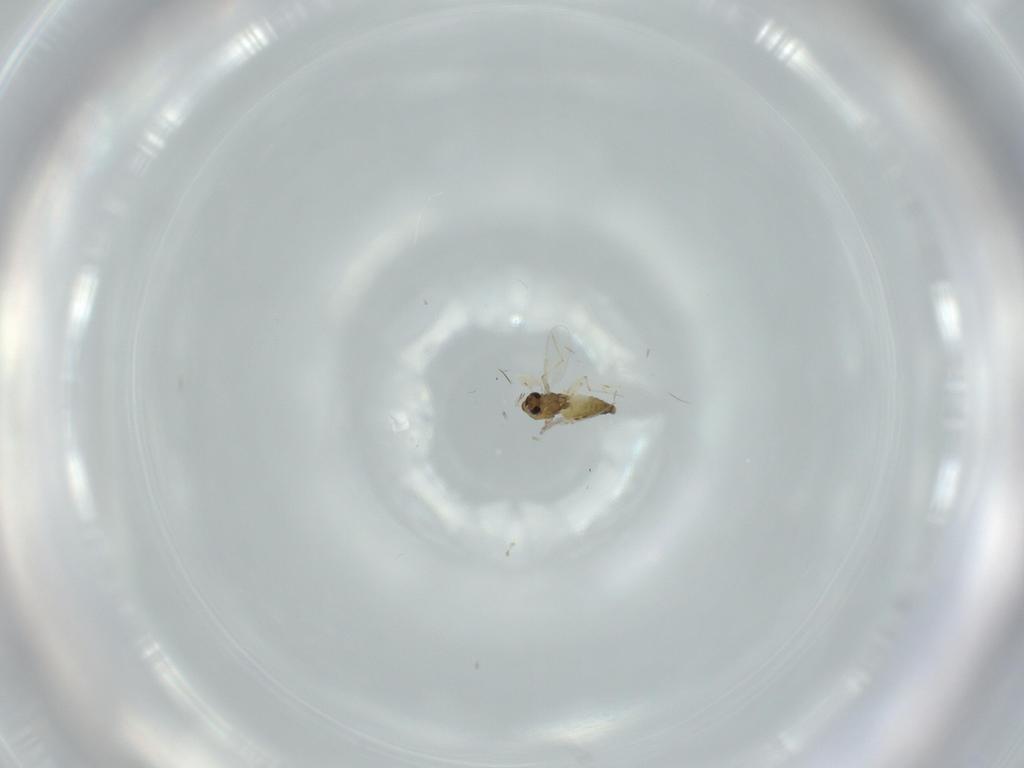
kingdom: Animalia
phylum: Arthropoda
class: Insecta
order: Diptera
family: Chironomidae
